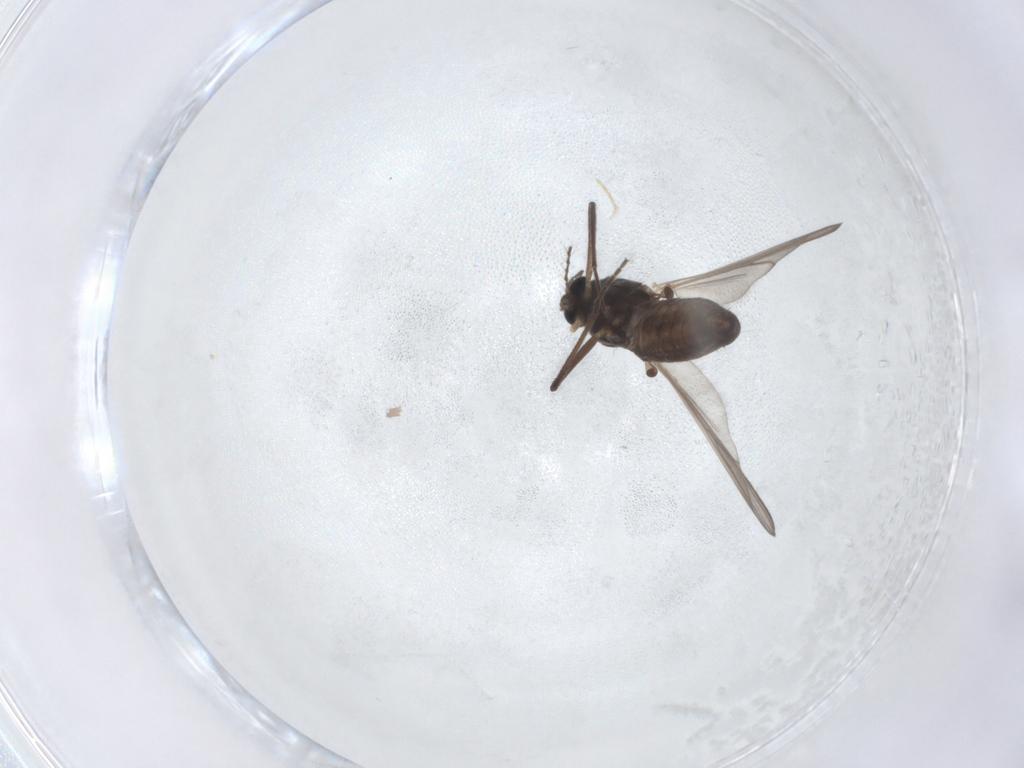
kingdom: Animalia
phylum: Arthropoda
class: Insecta
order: Diptera
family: Chironomidae
